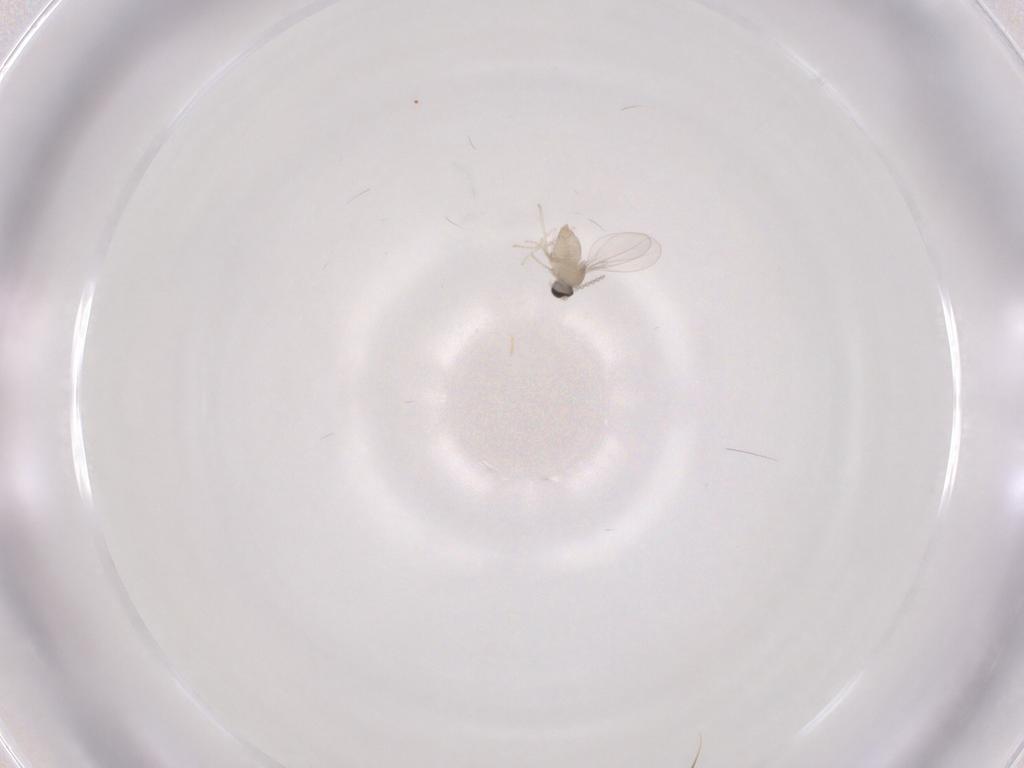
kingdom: Animalia
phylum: Arthropoda
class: Insecta
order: Diptera
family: Cecidomyiidae
